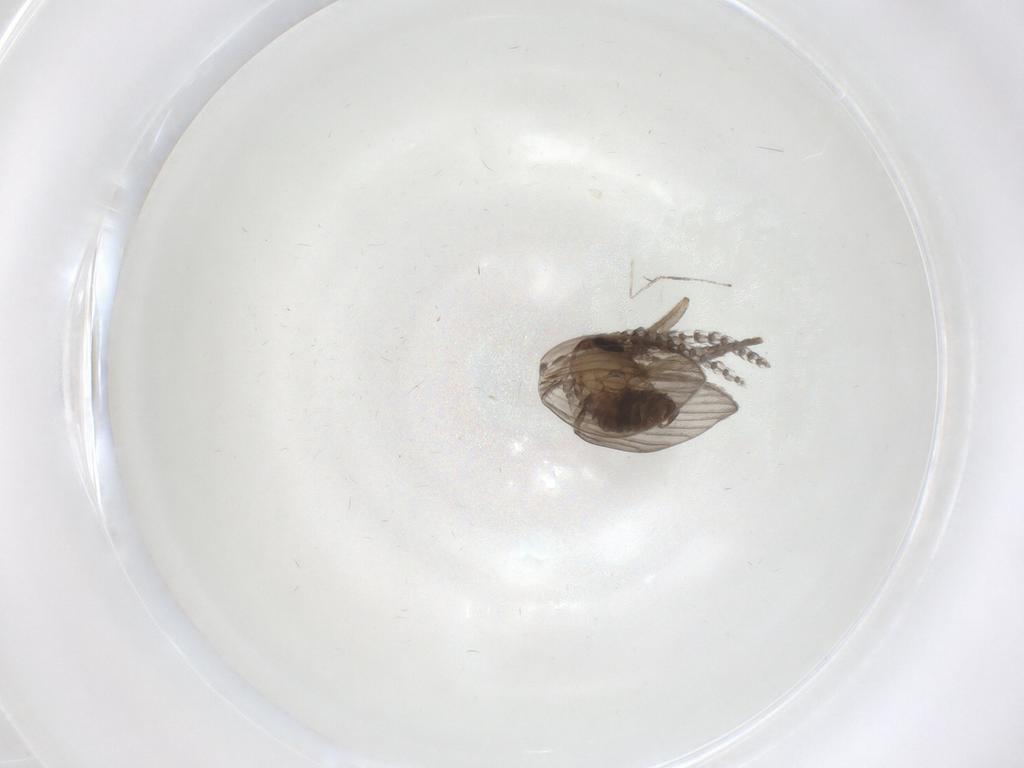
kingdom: Animalia
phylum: Arthropoda
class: Insecta
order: Diptera
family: Psychodidae
